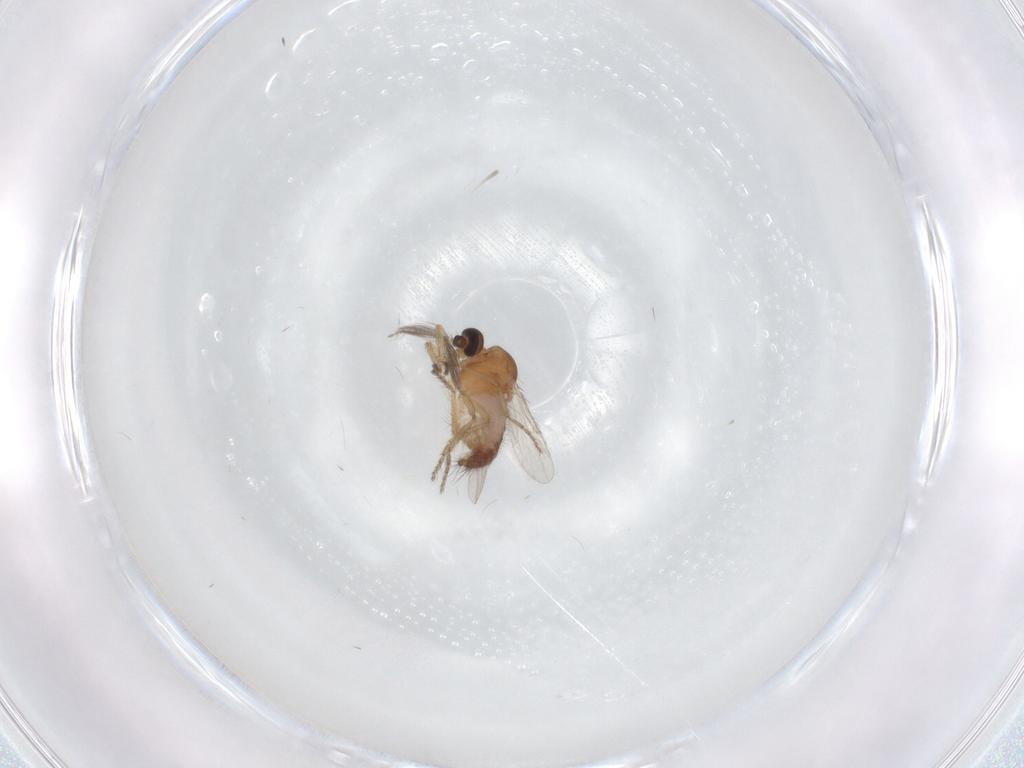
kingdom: Animalia
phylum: Arthropoda
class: Insecta
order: Diptera
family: Ceratopogonidae
